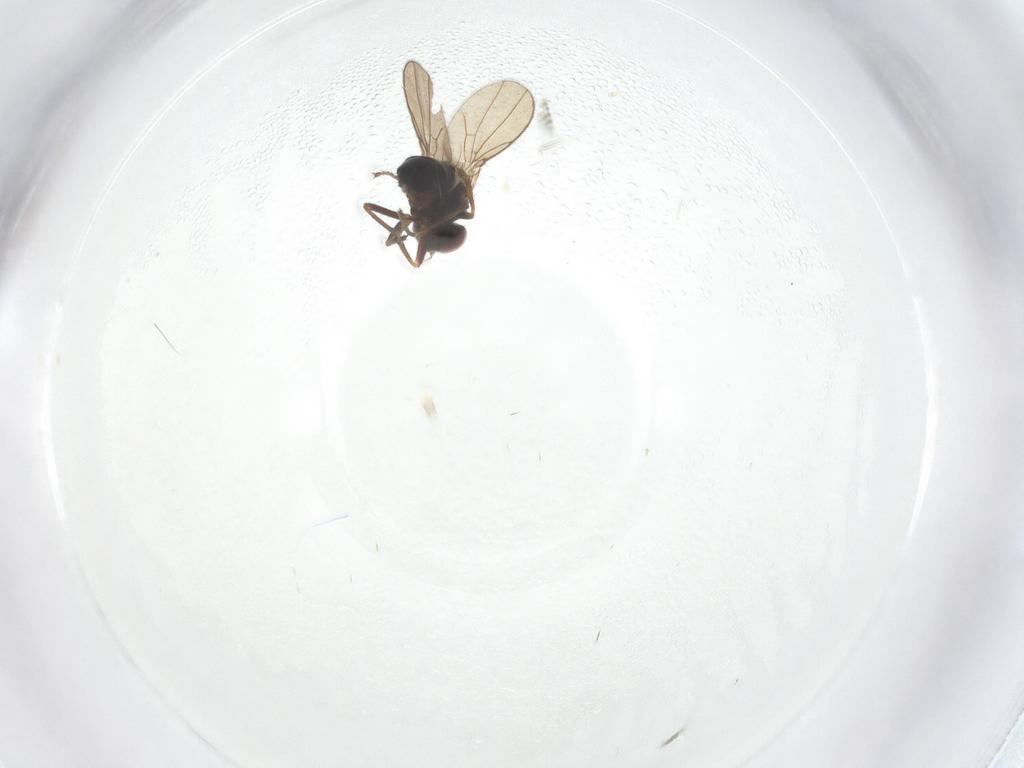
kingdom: Animalia
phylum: Arthropoda
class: Insecta
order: Diptera
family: Ephydridae
